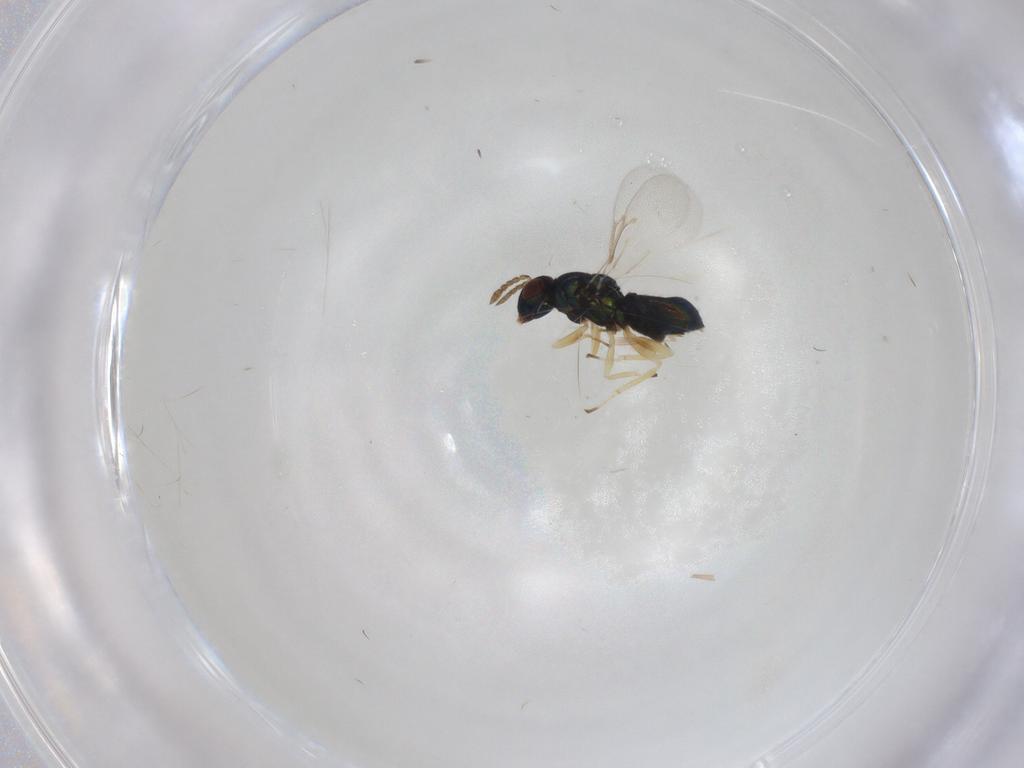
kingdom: Animalia
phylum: Arthropoda
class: Insecta
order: Hymenoptera
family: Eulophidae
